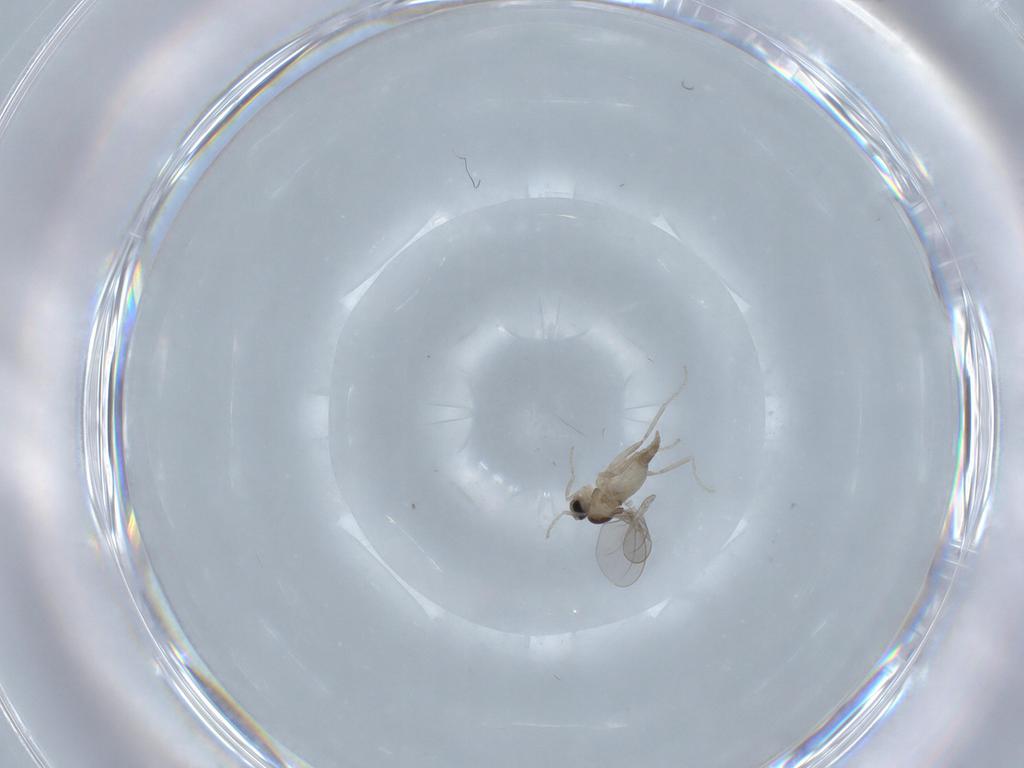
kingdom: Animalia
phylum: Arthropoda
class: Insecta
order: Diptera
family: Cecidomyiidae
